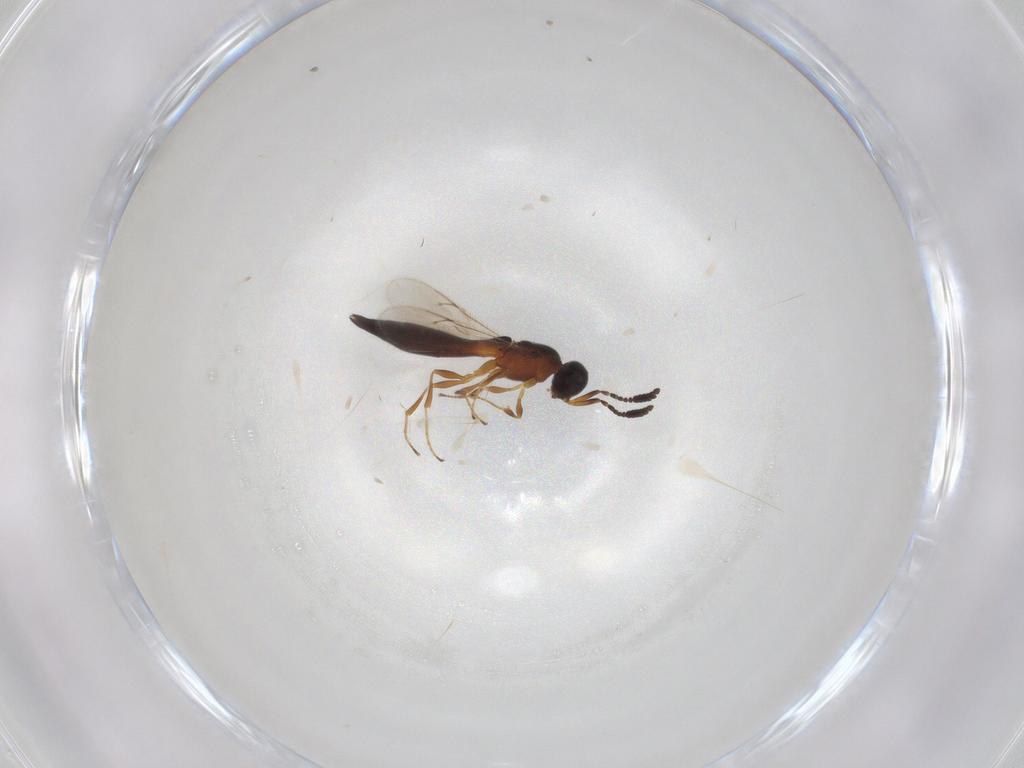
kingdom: Animalia
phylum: Arthropoda
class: Insecta
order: Hymenoptera
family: Scelionidae
